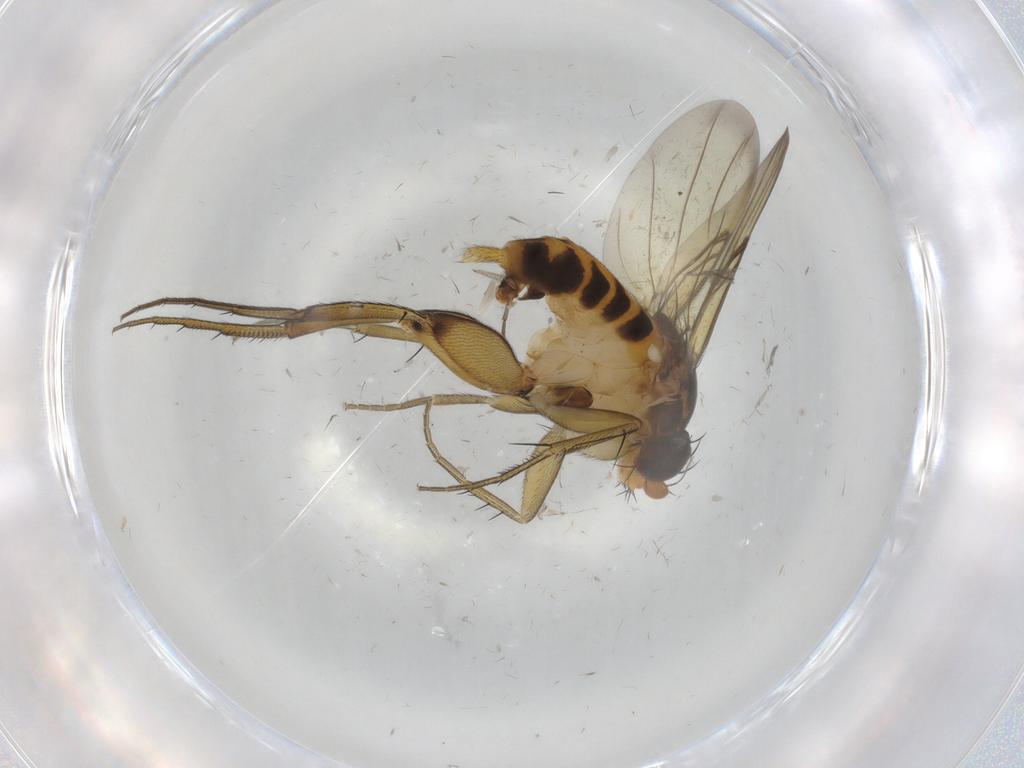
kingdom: Animalia
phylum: Arthropoda
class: Insecta
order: Diptera
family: Phoridae
